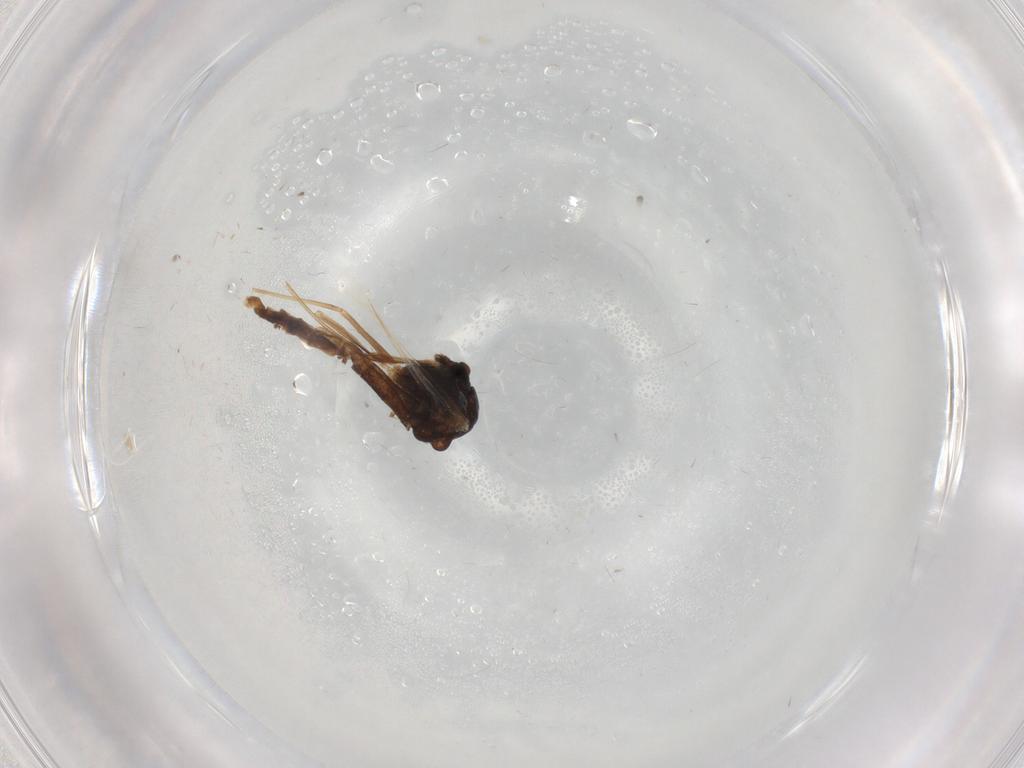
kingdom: Animalia
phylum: Arthropoda
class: Insecta
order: Diptera
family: Chironomidae
